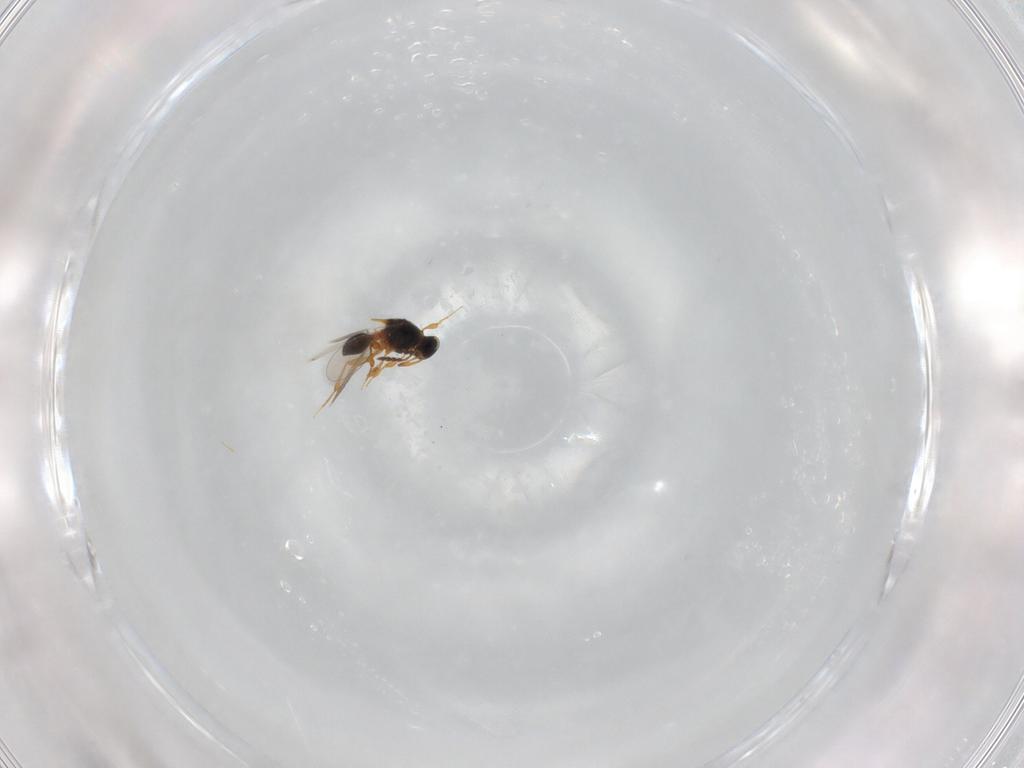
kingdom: Animalia
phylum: Arthropoda
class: Insecta
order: Hymenoptera
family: Platygastridae
